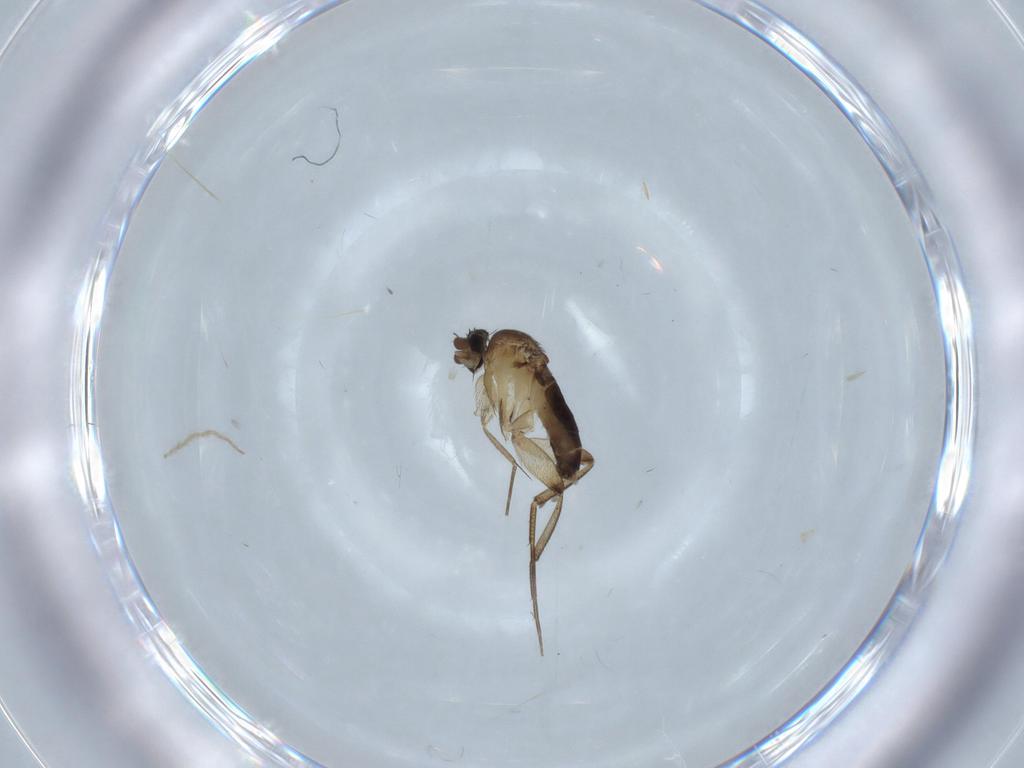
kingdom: Animalia
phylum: Arthropoda
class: Insecta
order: Diptera
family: Phoridae
